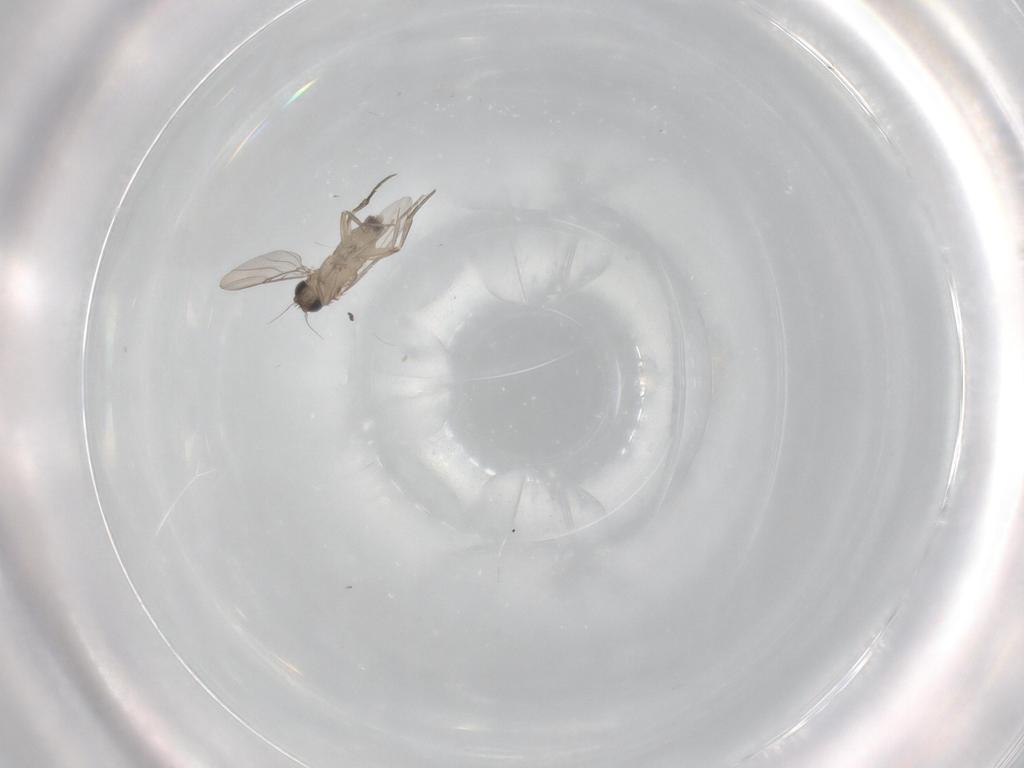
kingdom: Animalia
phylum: Arthropoda
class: Insecta
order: Diptera
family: Phoridae
